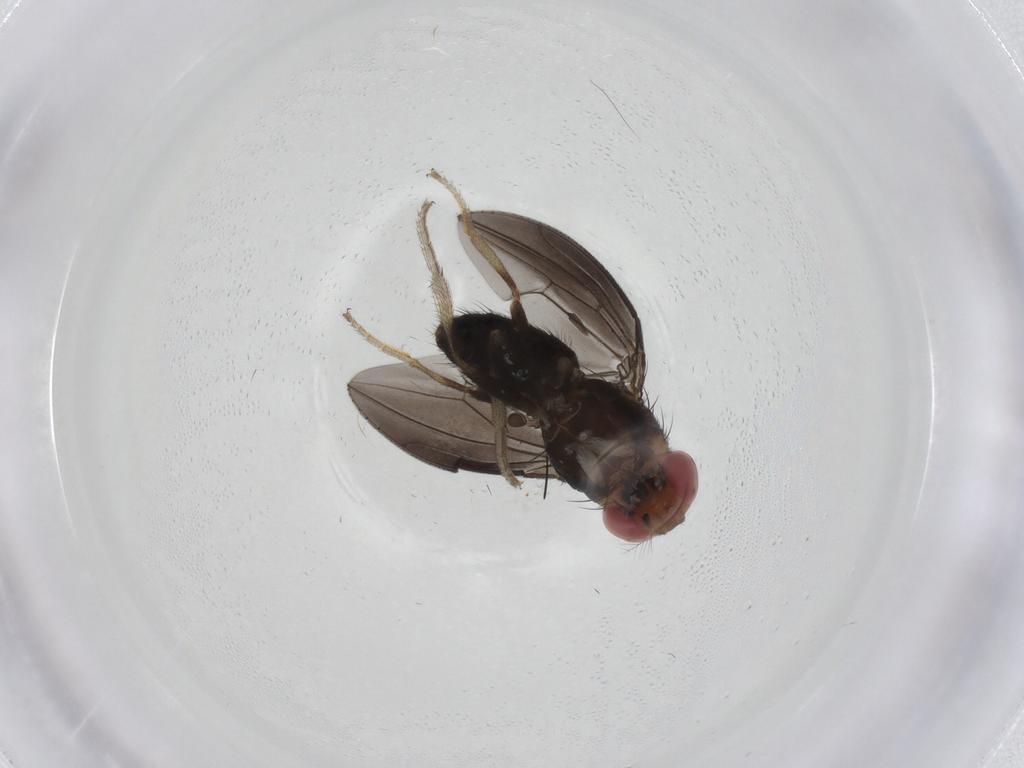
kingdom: Animalia
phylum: Arthropoda
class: Insecta
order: Diptera
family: Drosophilidae
